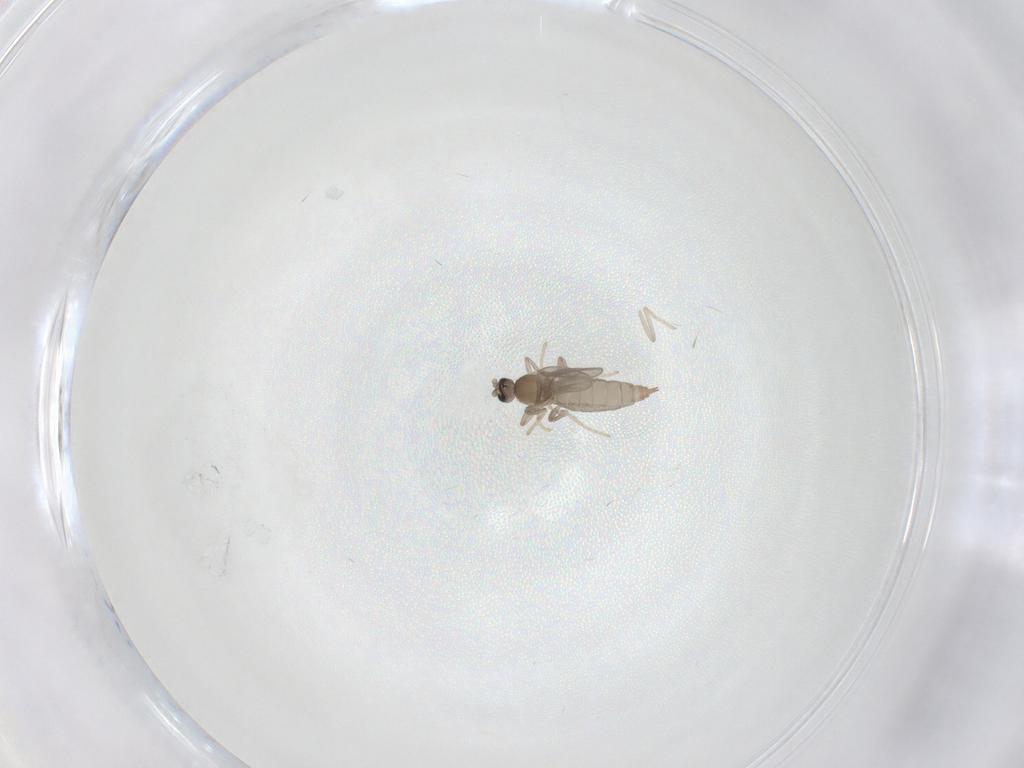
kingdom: Animalia
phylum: Arthropoda
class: Insecta
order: Diptera
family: Cecidomyiidae
